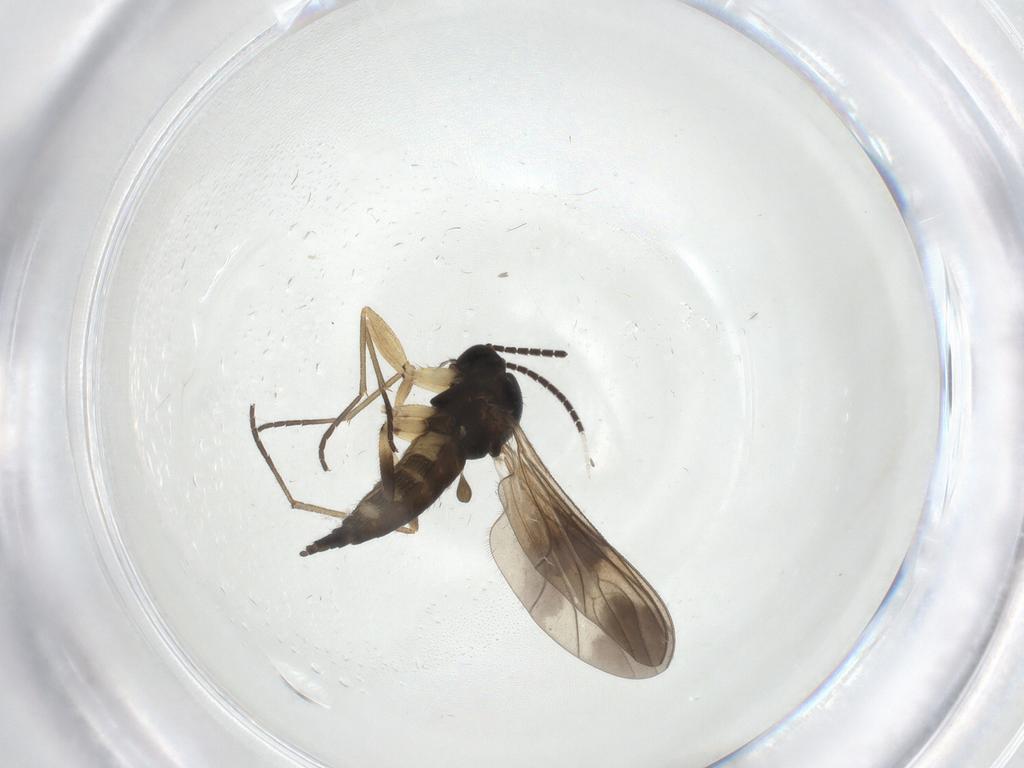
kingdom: Animalia
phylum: Arthropoda
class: Insecta
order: Diptera
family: Sciaridae
